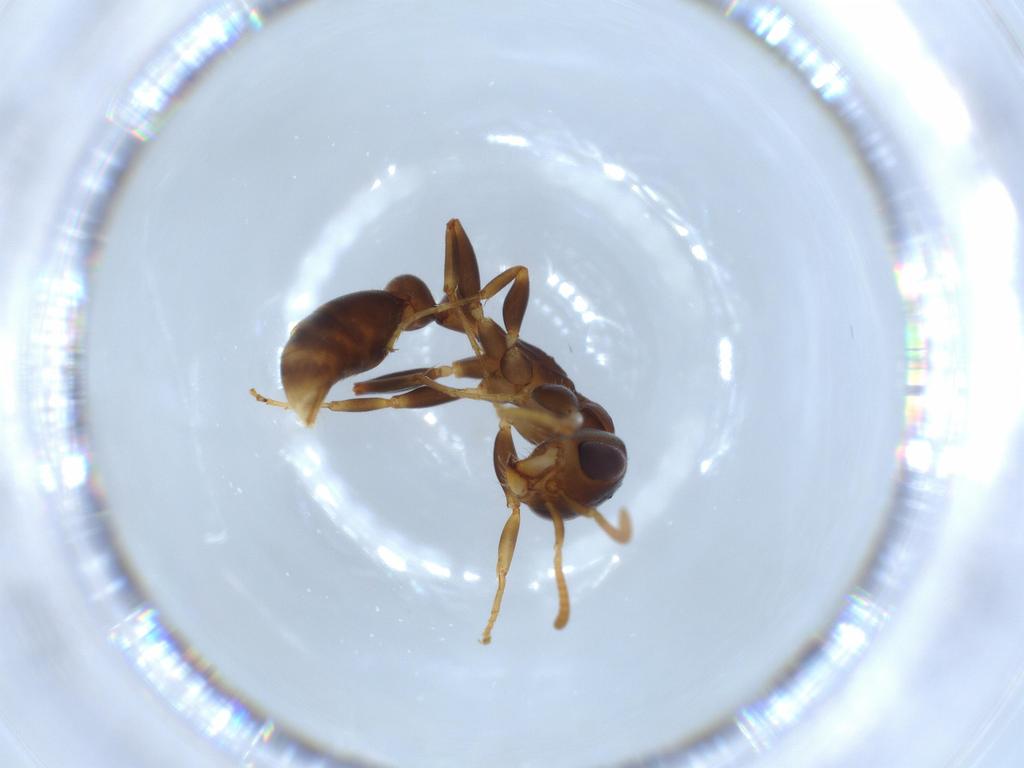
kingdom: Animalia
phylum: Arthropoda
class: Insecta
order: Hymenoptera
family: Formicidae
